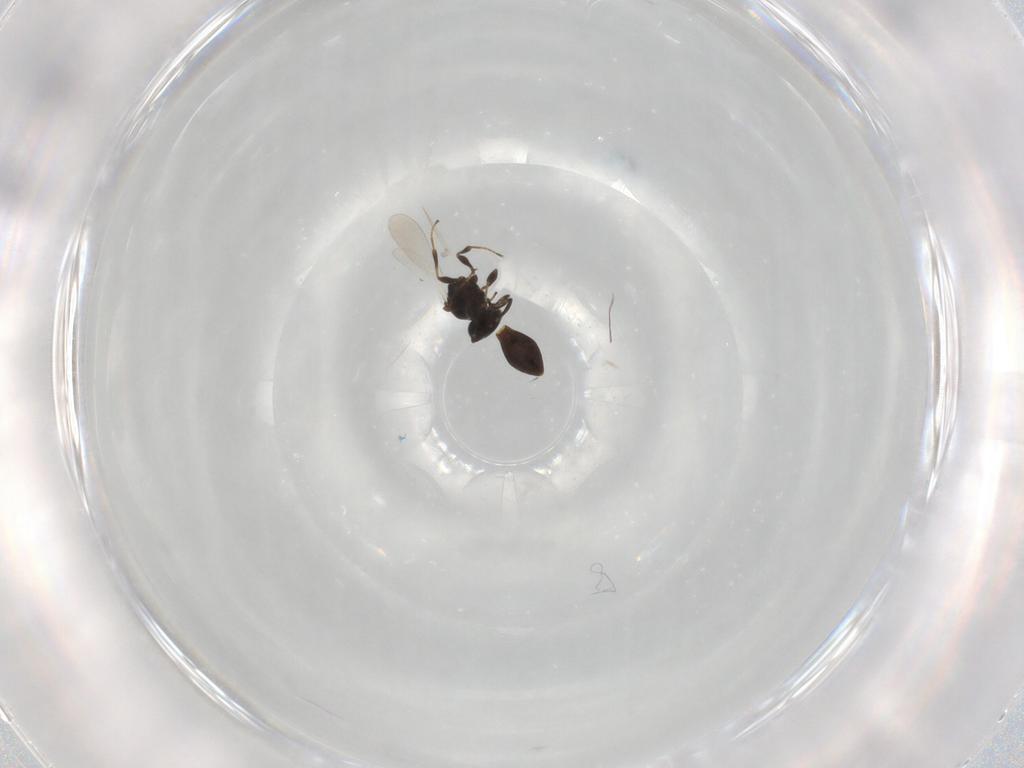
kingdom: Animalia
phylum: Arthropoda
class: Insecta
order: Hymenoptera
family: Platygastridae
